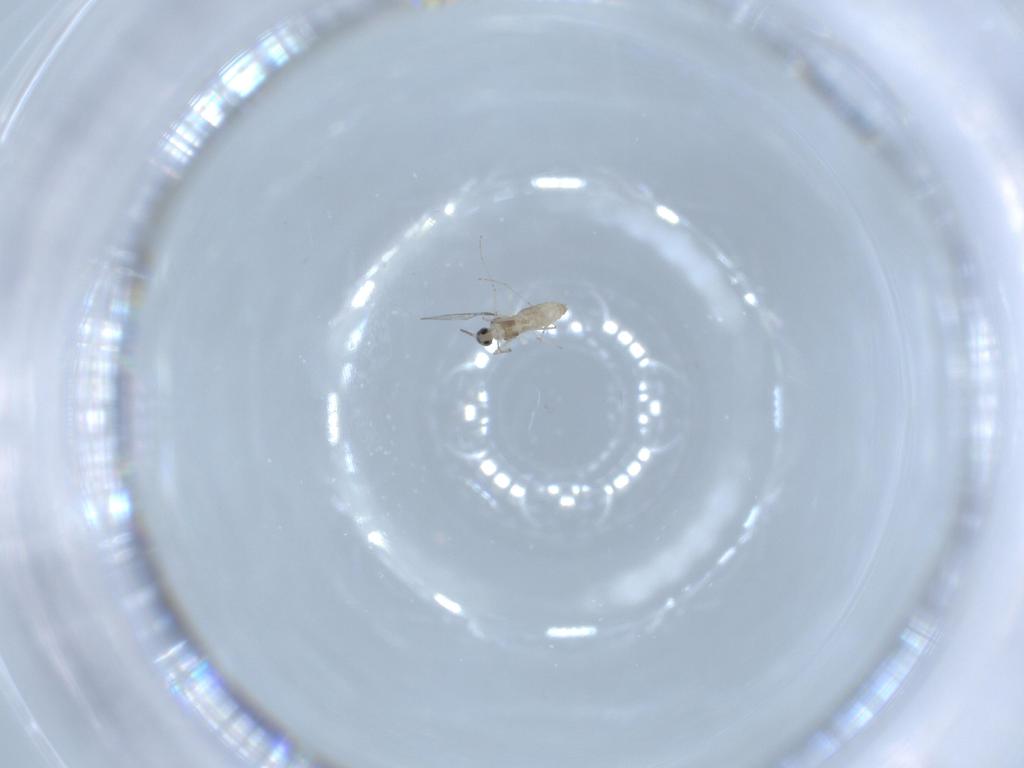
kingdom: Animalia
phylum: Arthropoda
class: Insecta
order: Diptera
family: Cecidomyiidae
